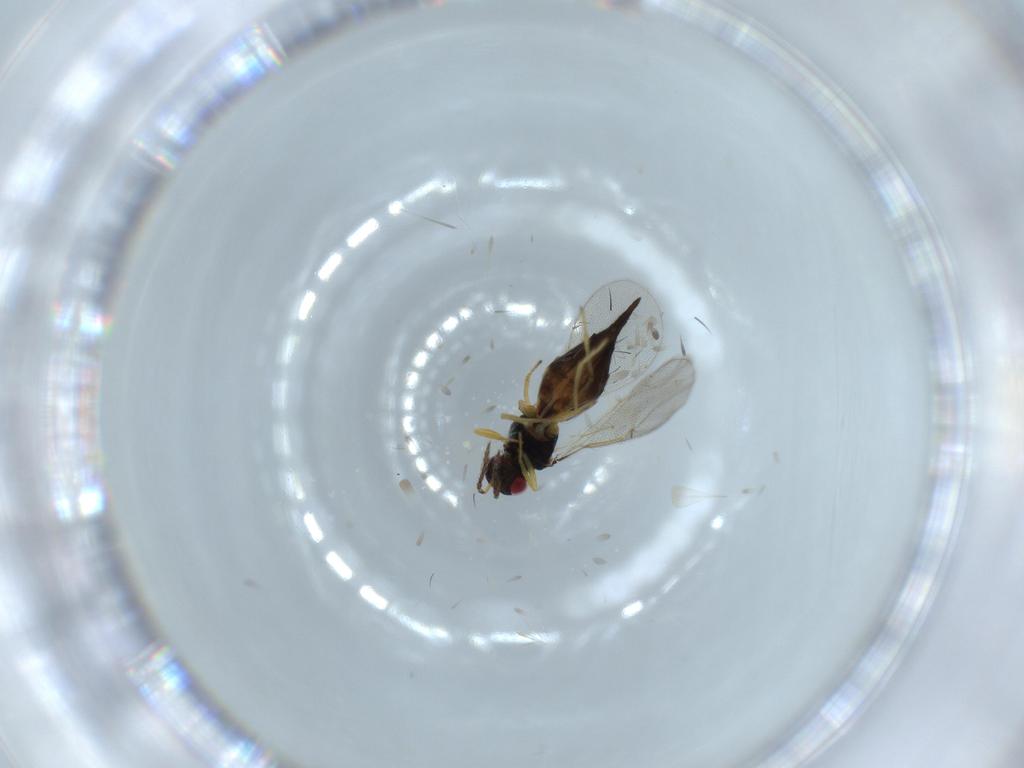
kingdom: Animalia
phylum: Arthropoda
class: Insecta
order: Hymenoptera
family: Eulophidae
